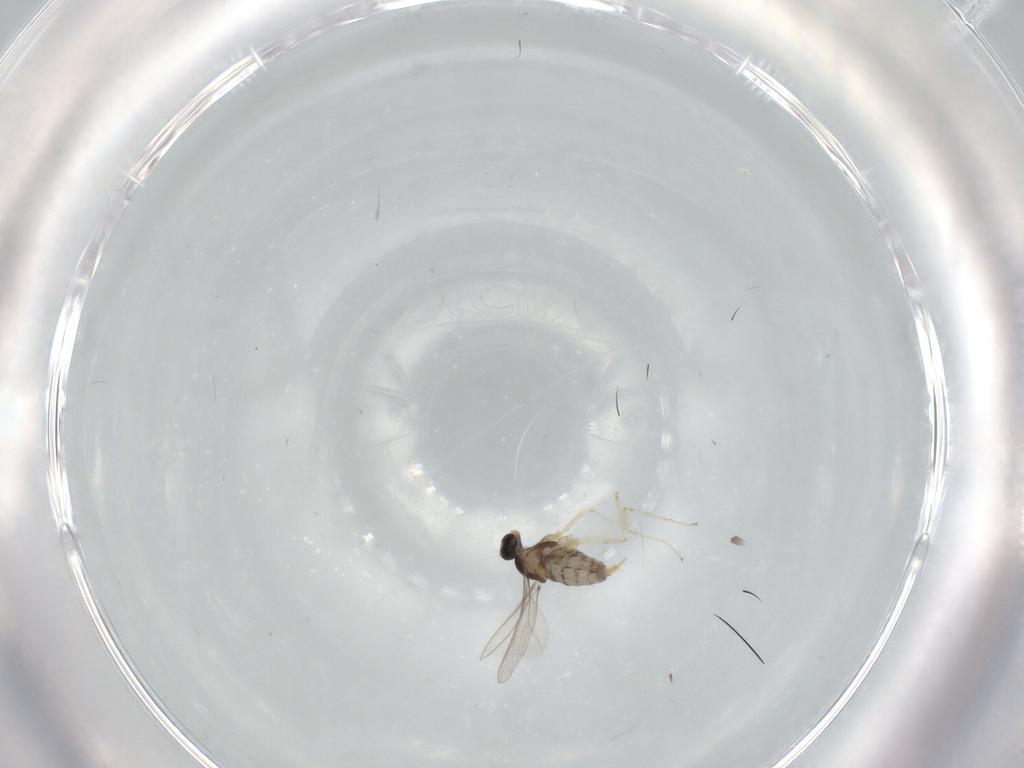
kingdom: Animalia
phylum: Arthropoda
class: Insecta
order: Diptera
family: Cecidomyiidae
